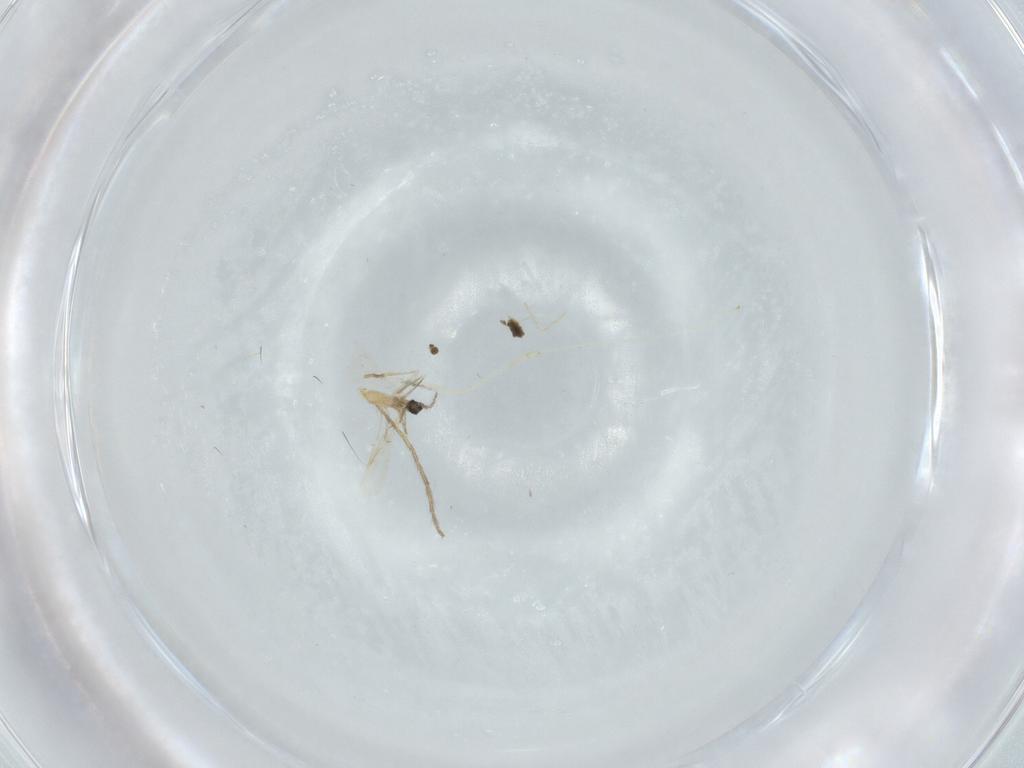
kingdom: Animalia
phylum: Arthropoda
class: Insecta
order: Diptera
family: Cecidomyiidae
